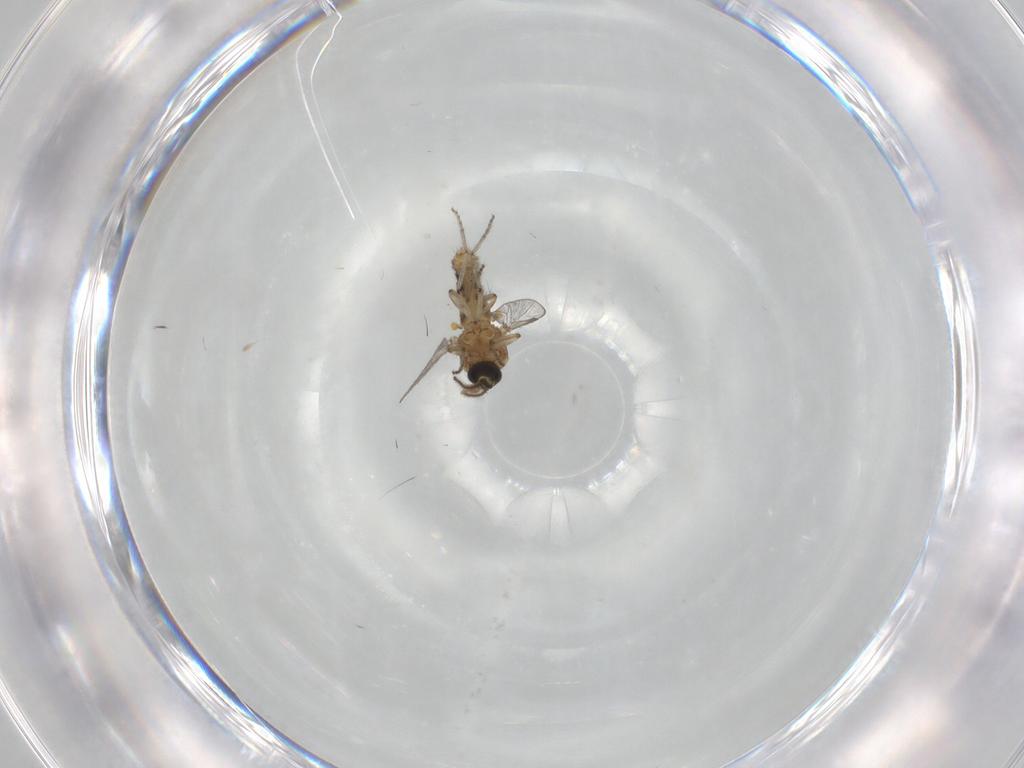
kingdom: Animalia
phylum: Arthropoda
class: Insecta
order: Diptera
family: Ceratopogonidae
